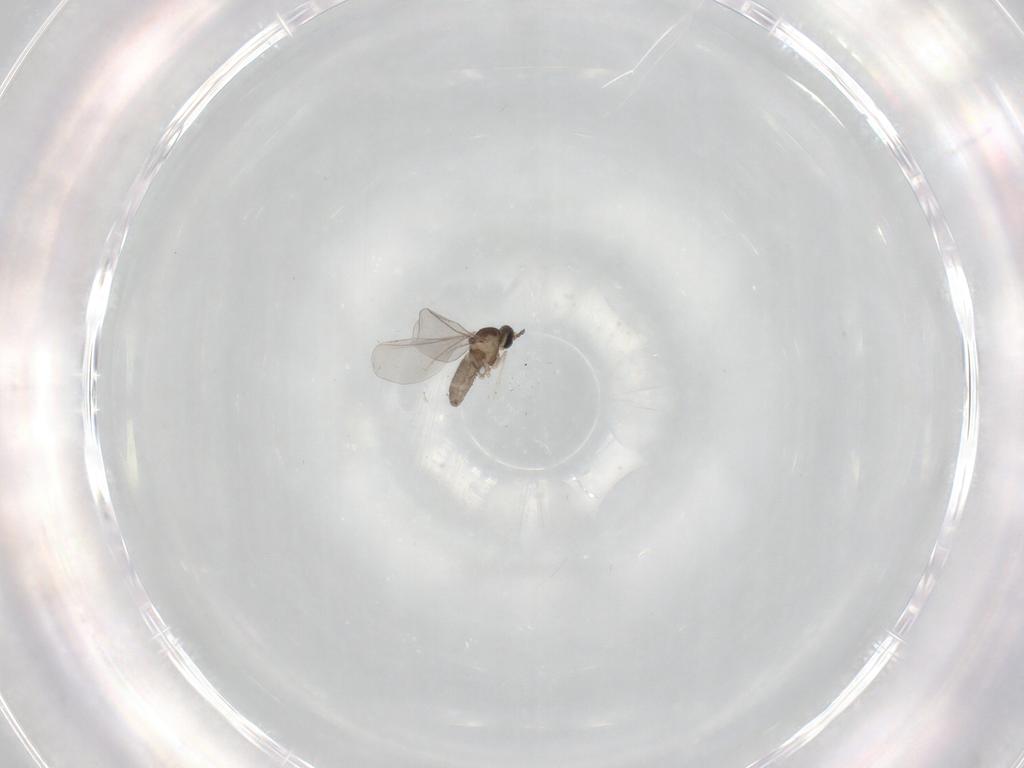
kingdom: Animalia
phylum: Arthropoda
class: Insecta
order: Diptera
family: Cecidomyiidae
